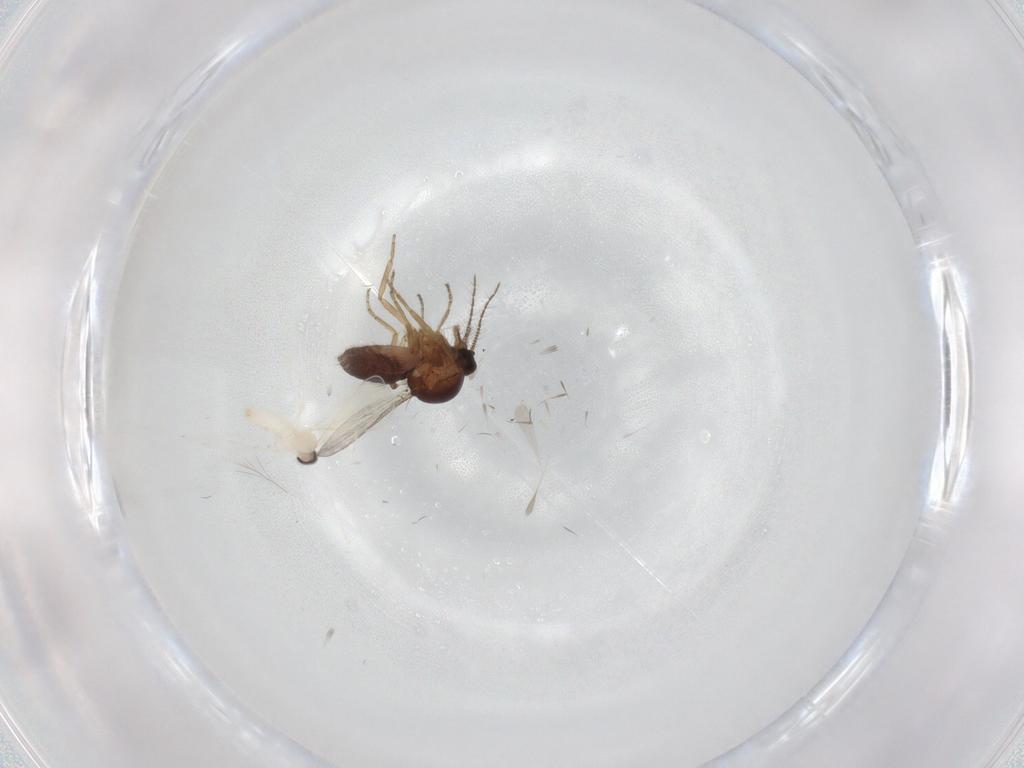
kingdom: Animalia
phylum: Arthropoda
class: Insecta
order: Diptera
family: Ceratopogonidae
